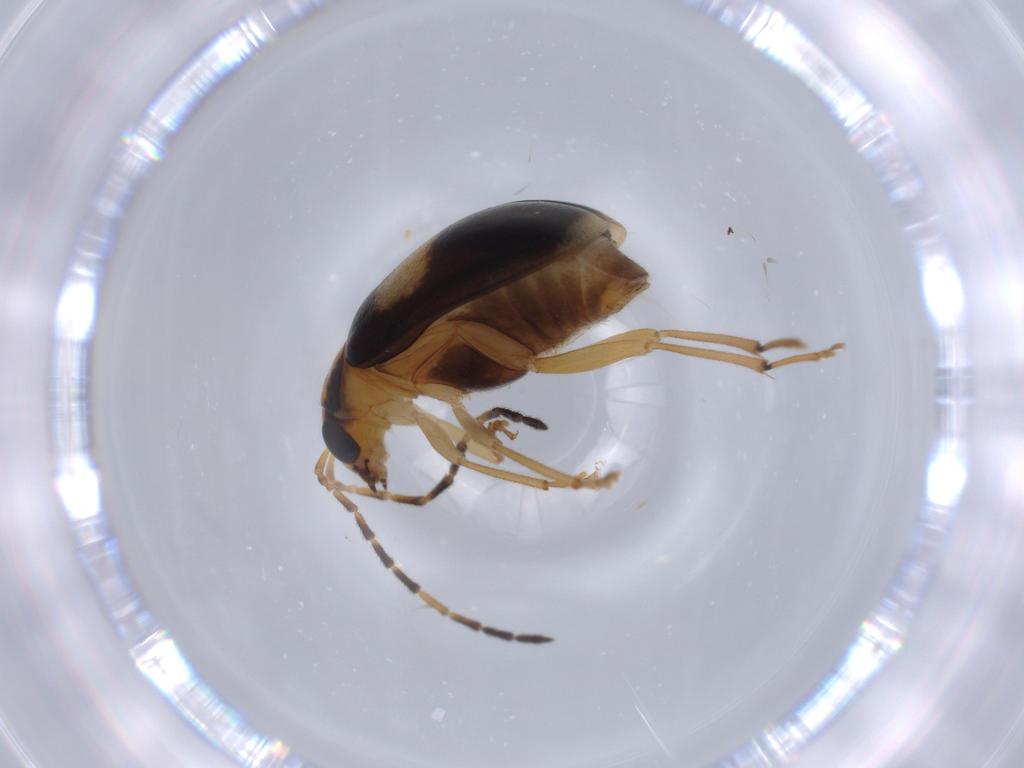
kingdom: Animalia
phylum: Arthropoda
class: Insecta
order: Coleoptera
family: Chrysomelidae
